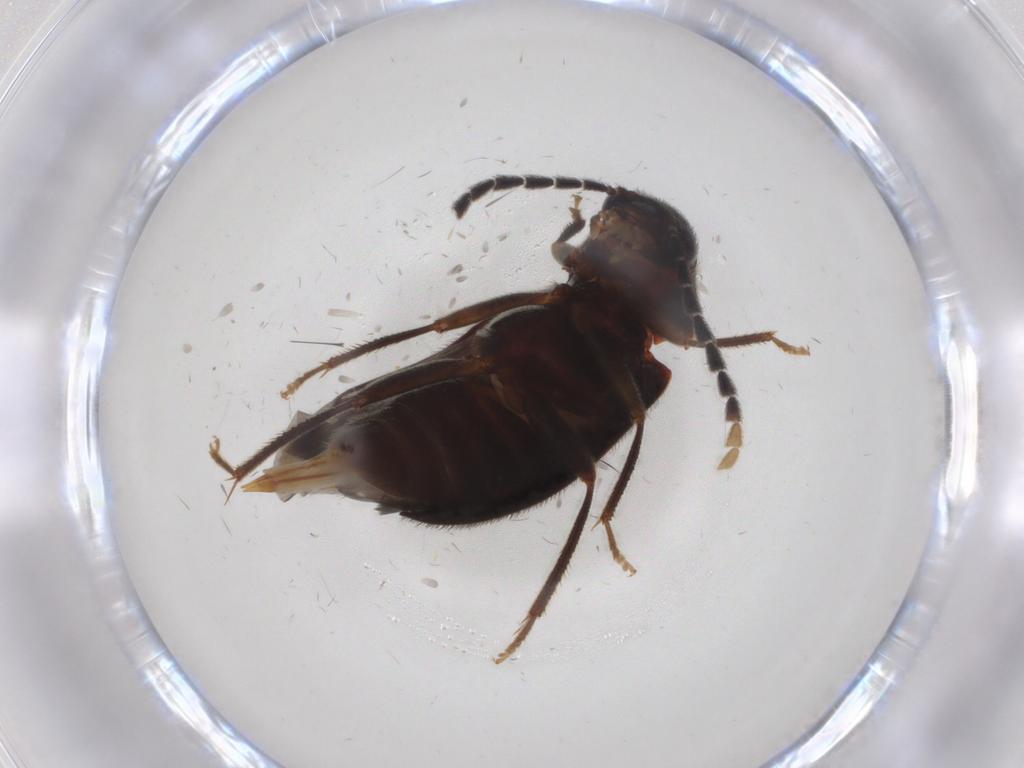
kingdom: Animalia
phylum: Arthropoda
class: Insecta
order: Coleoptera
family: Ptilodactylidae
